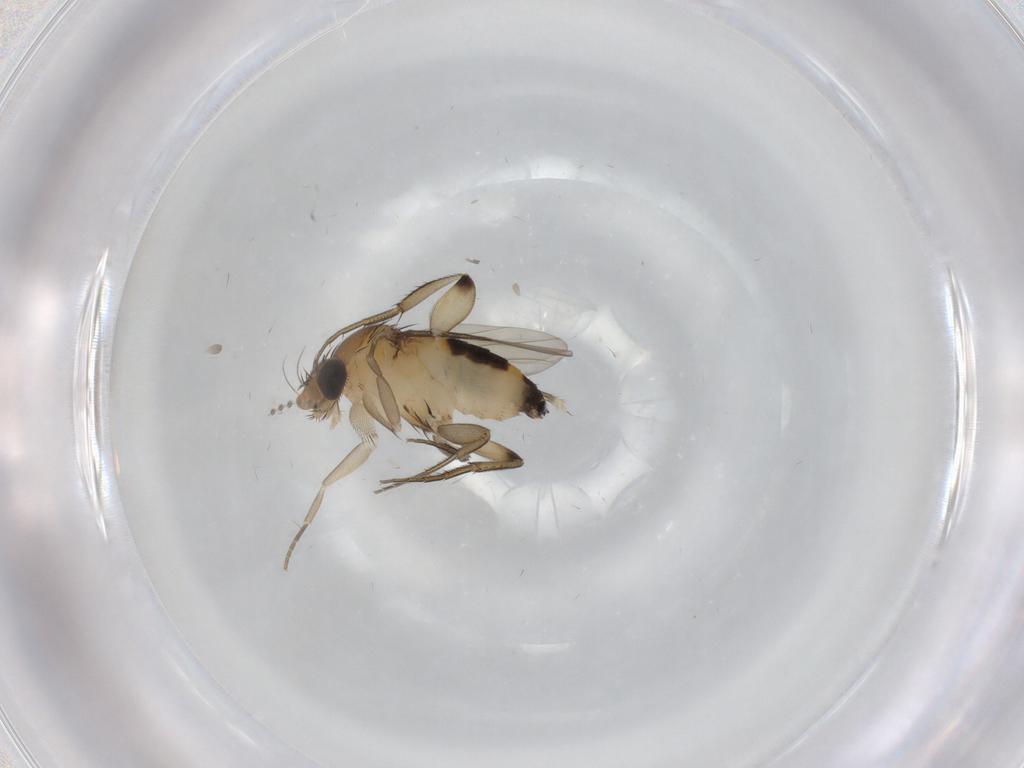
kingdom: Animalia
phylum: Arthropoda
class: Insecta
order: Diptera
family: Phoridae
